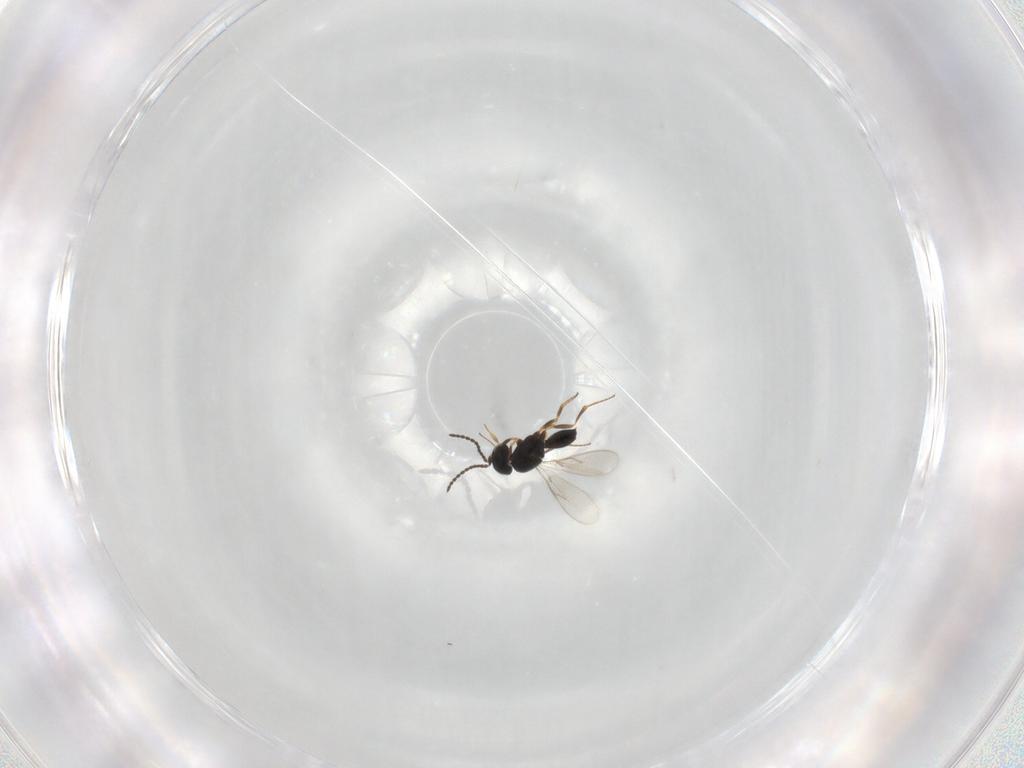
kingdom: Animalia
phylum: Arthropoda
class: Insecta
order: Hymenoptera
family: Scelionidae
